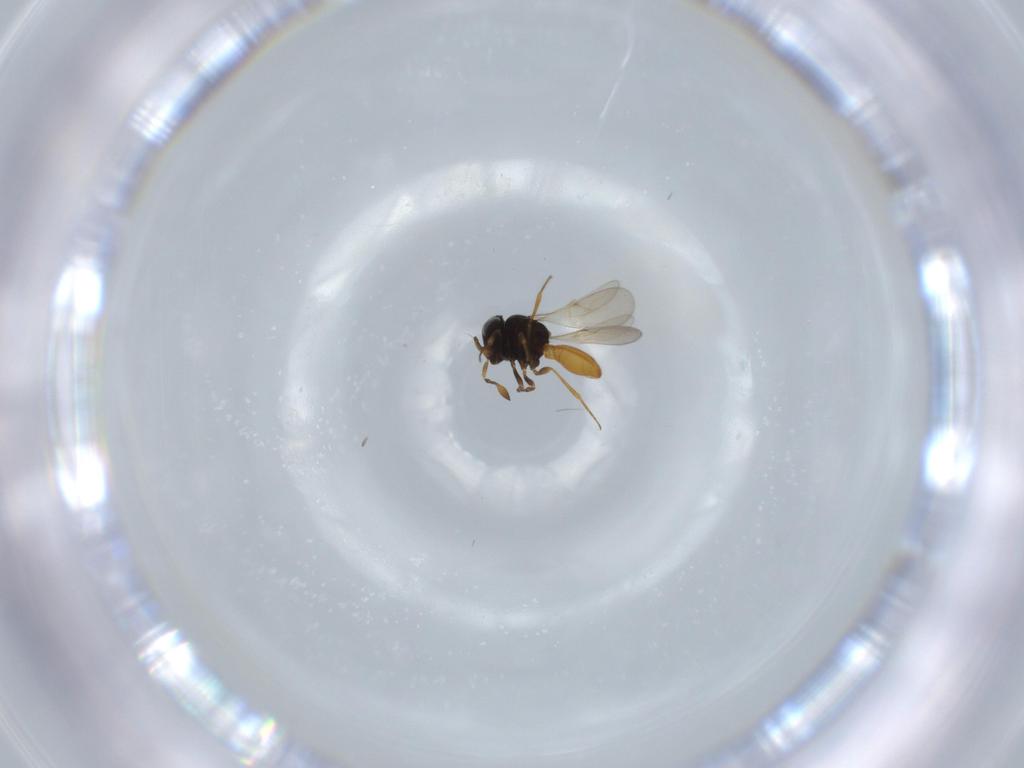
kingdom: Animalia
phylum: Arthropoda
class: Insecta
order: Hymenoptera
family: Scelionidae
